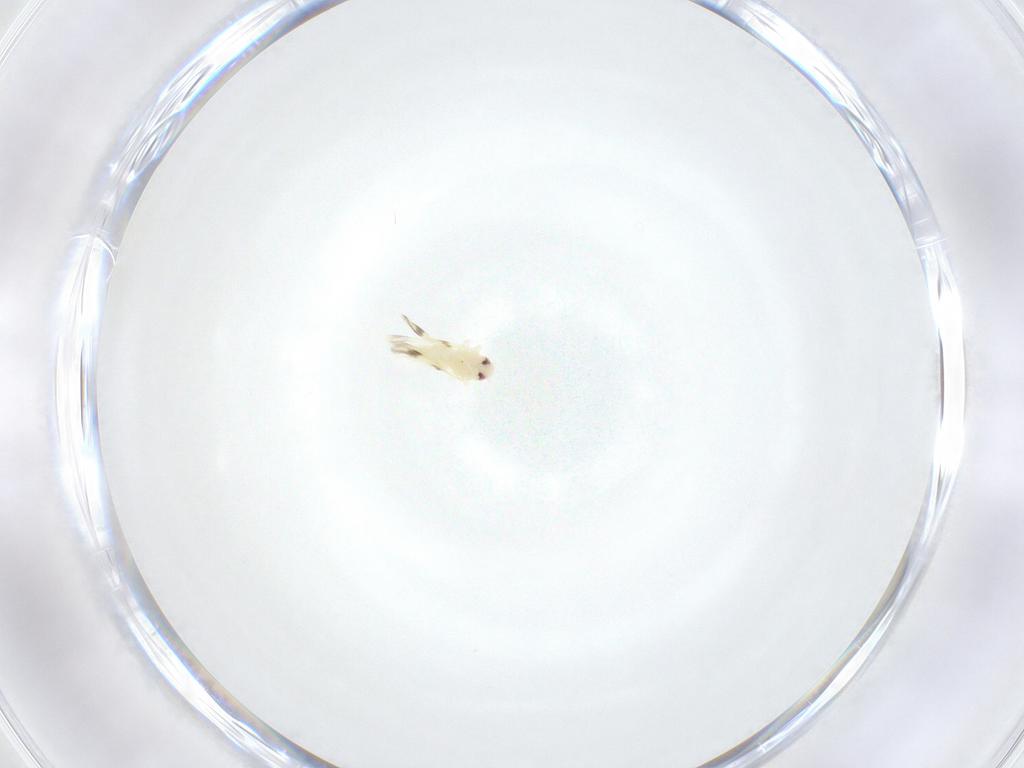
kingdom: Animalia
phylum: Arthropoda
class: Insecta
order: Hemiptera
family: Aleyrodidae
